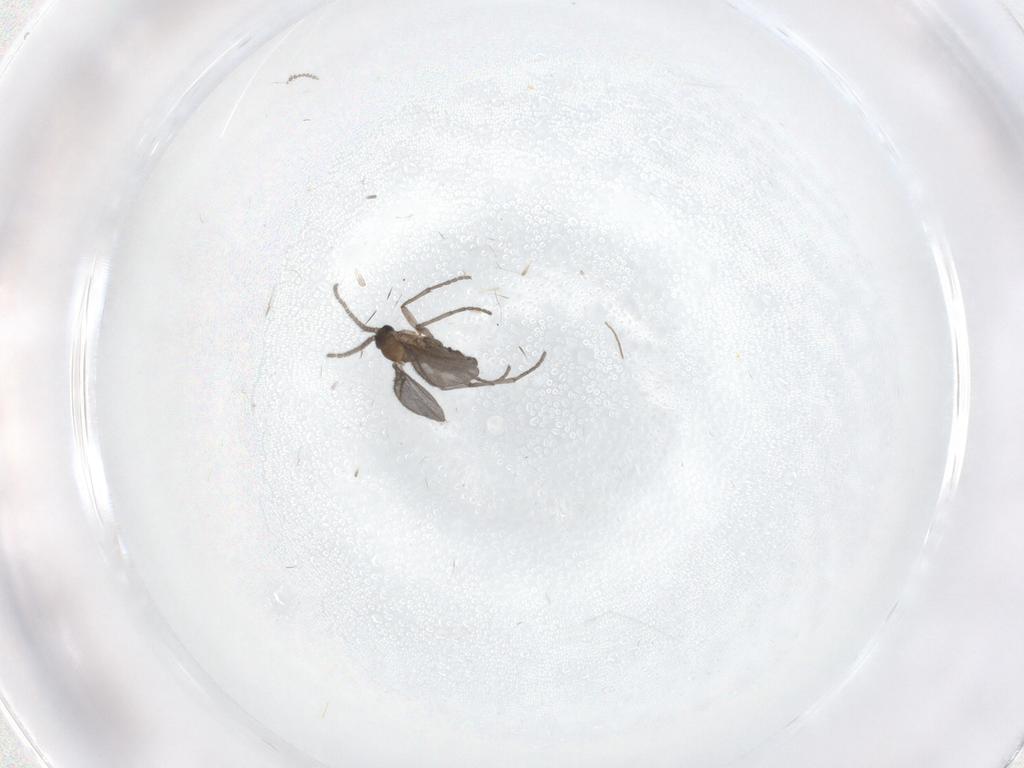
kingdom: Animalia
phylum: Arthropoda
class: Insecta
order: Diptera
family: Sciaridae
